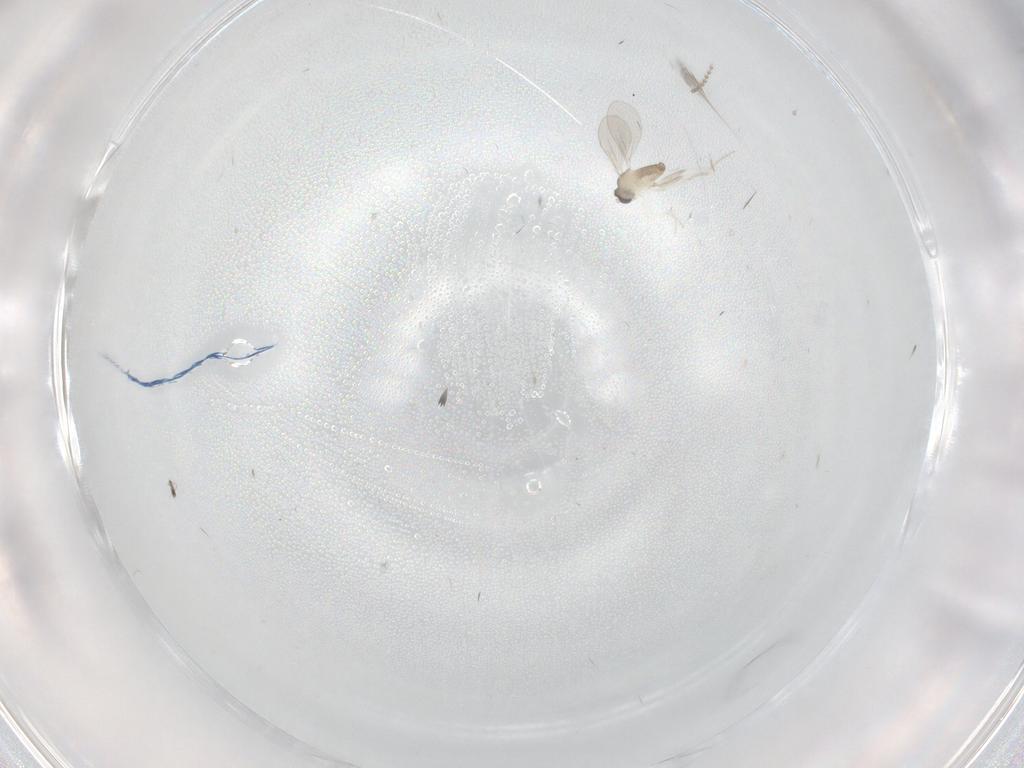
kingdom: Animalia
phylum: Arthropoda
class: Insecta
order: Diptera
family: Cecidomyiidae
